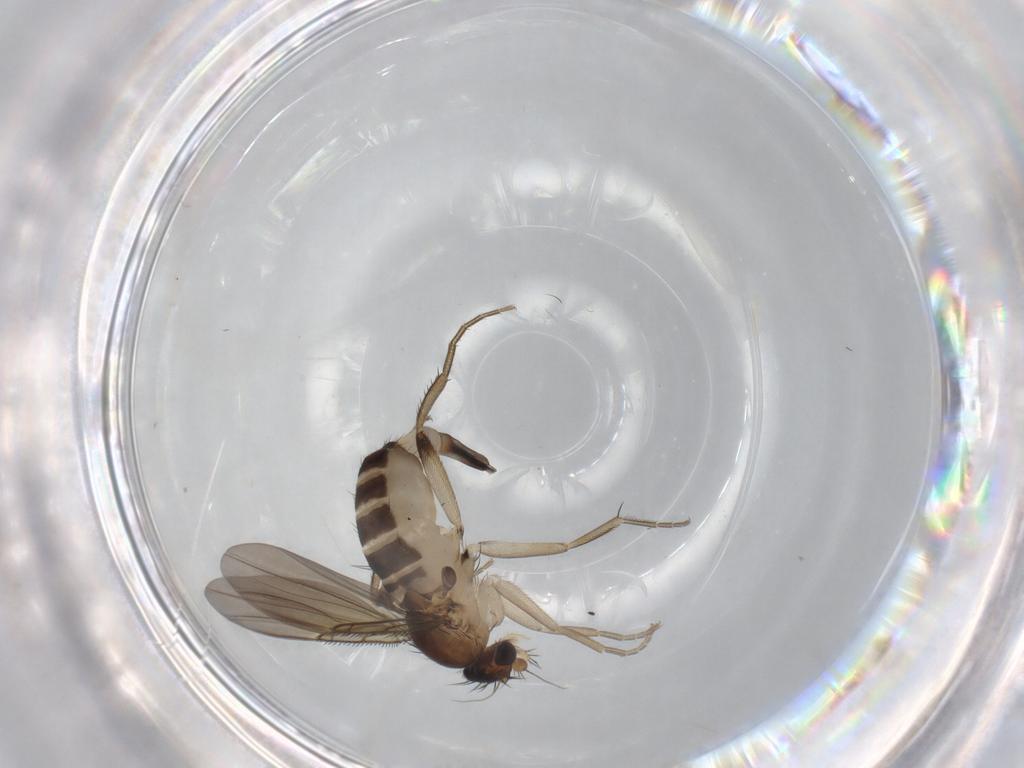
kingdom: Animalia
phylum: Arthropoda
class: Insecta
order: Diptera
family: Phoridae
